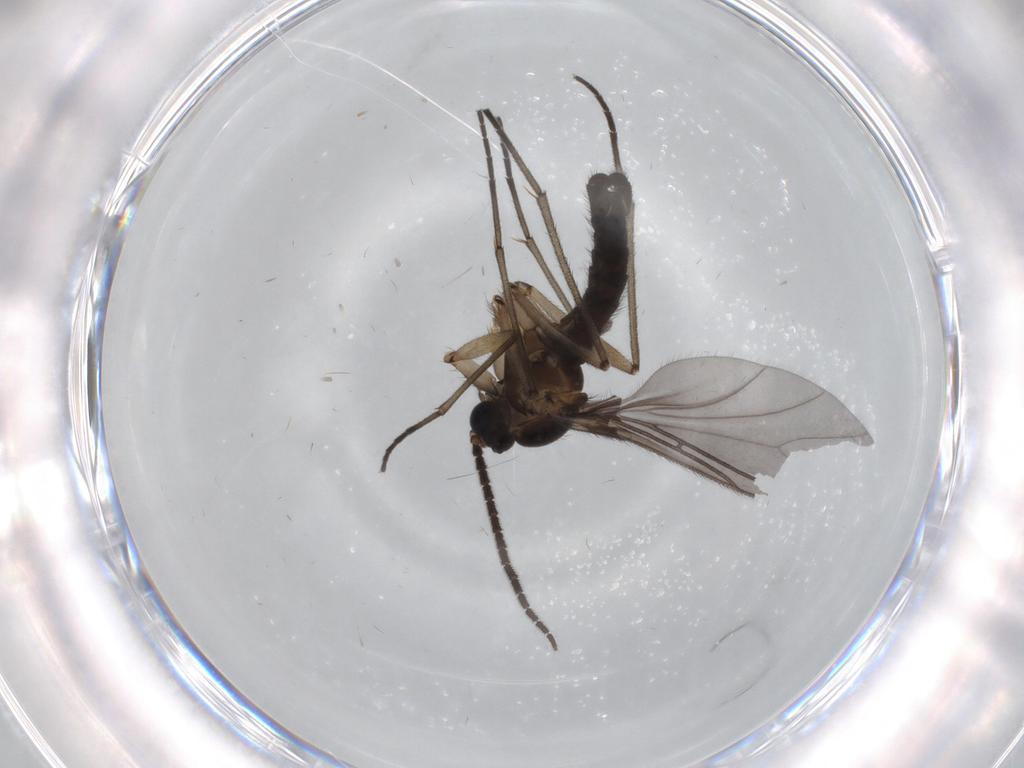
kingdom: Animalia
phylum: Arthropoda
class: Insecta
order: Diptera
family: Sciaridae
